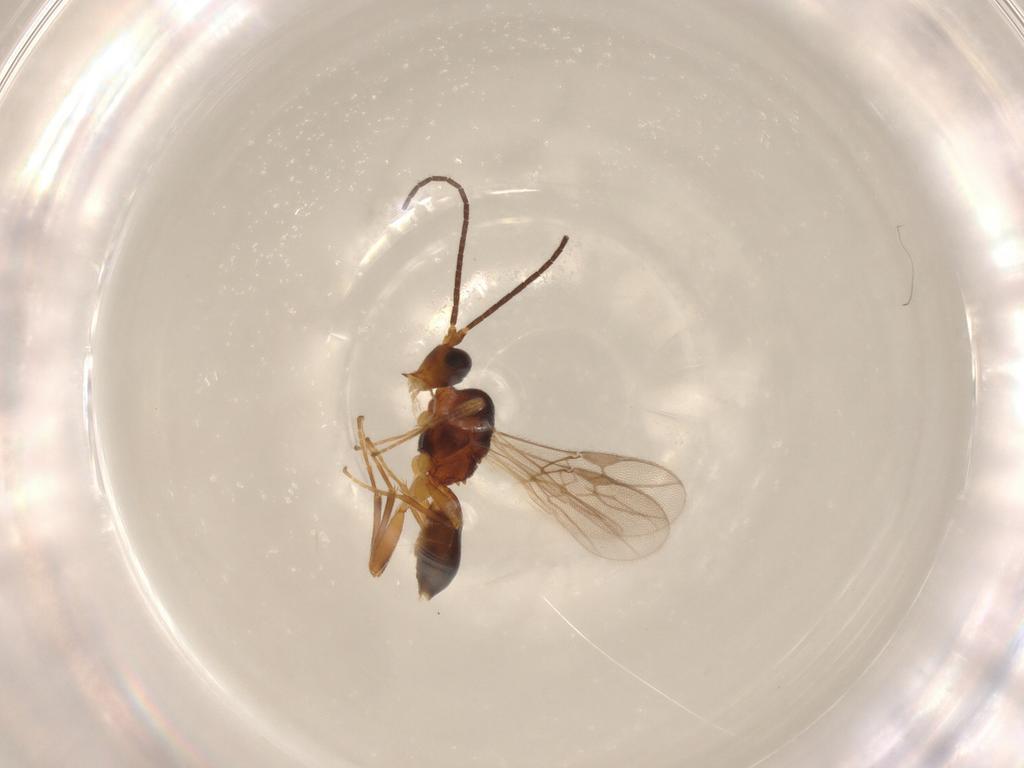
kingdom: Animalia
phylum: Arthropoda
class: Insecta
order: Hymenoptera
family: Braconidae
